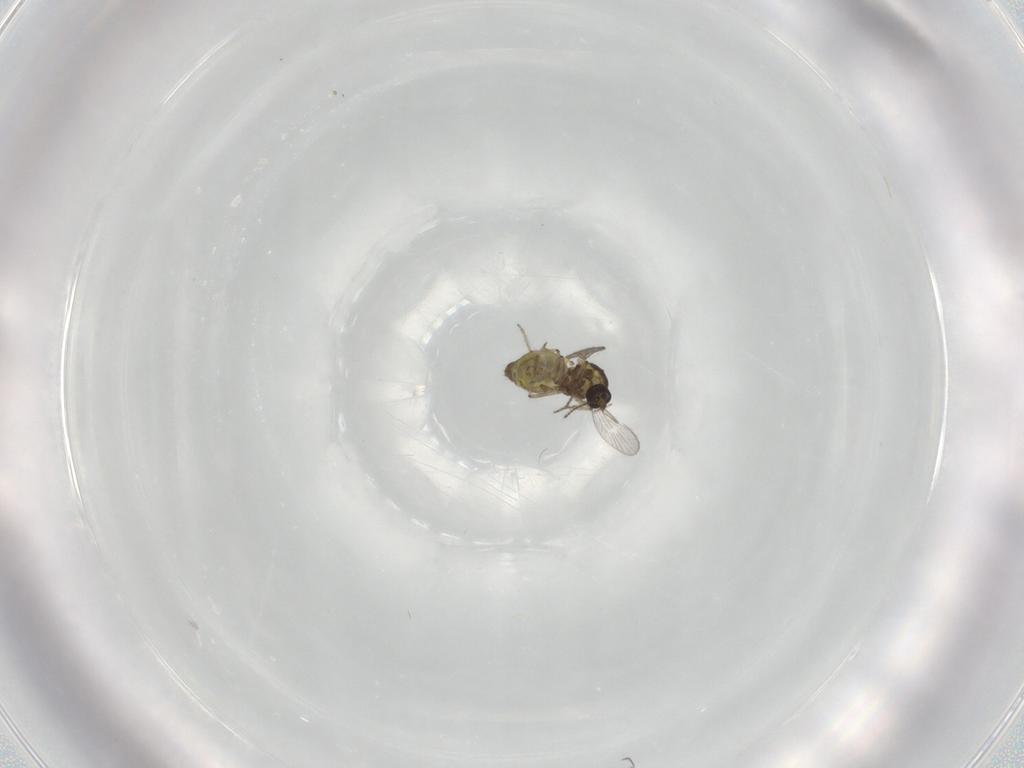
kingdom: Animalia
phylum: Arthropoda
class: Insecta
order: Diptera
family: Ceratopogonidae
